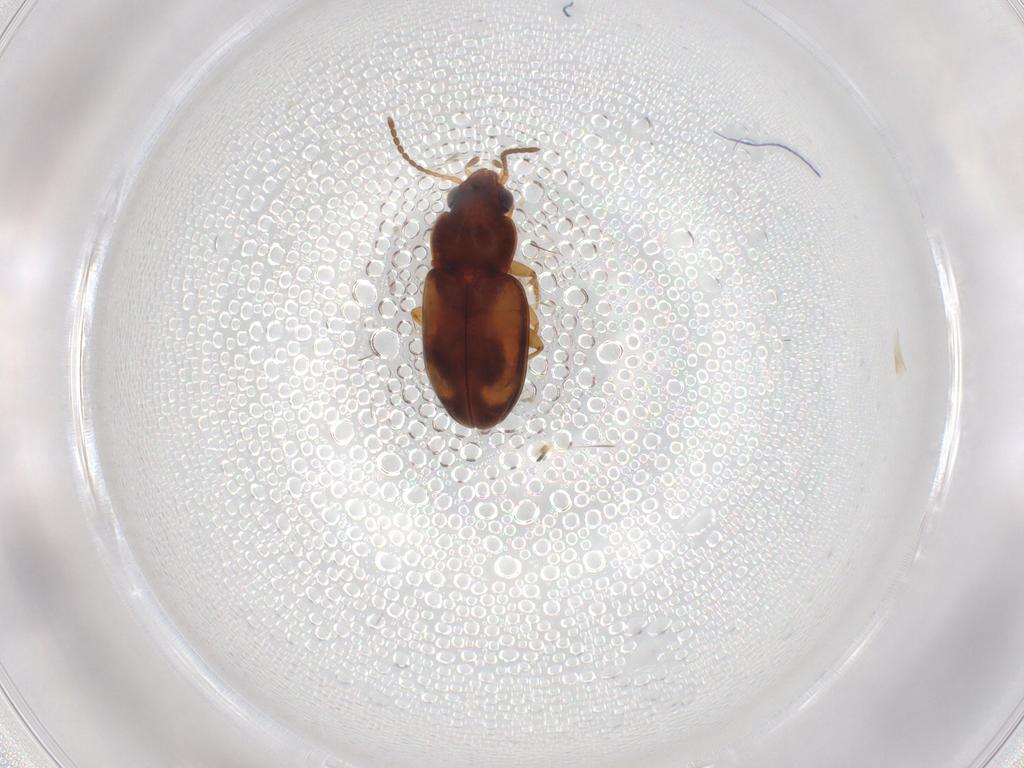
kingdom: Animalia
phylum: Arthropoda
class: Insecta
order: Coleoptera
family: Carabidae
